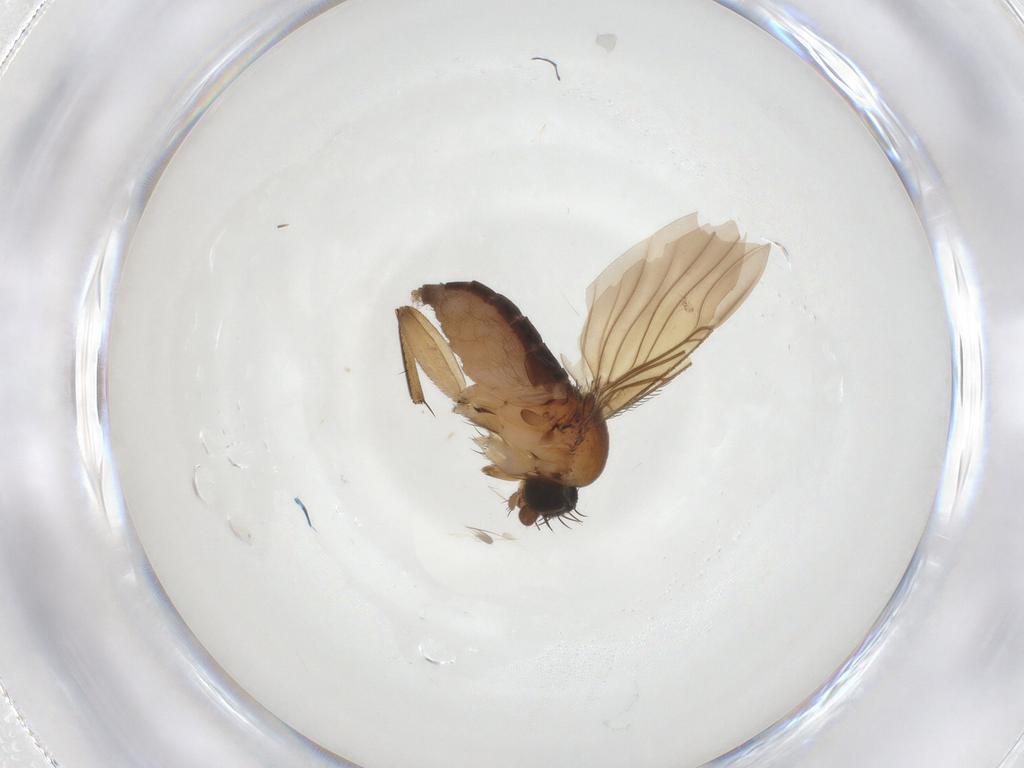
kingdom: Animalia
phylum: Arthropoda
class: Insecta
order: Diptera
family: Phoridae
